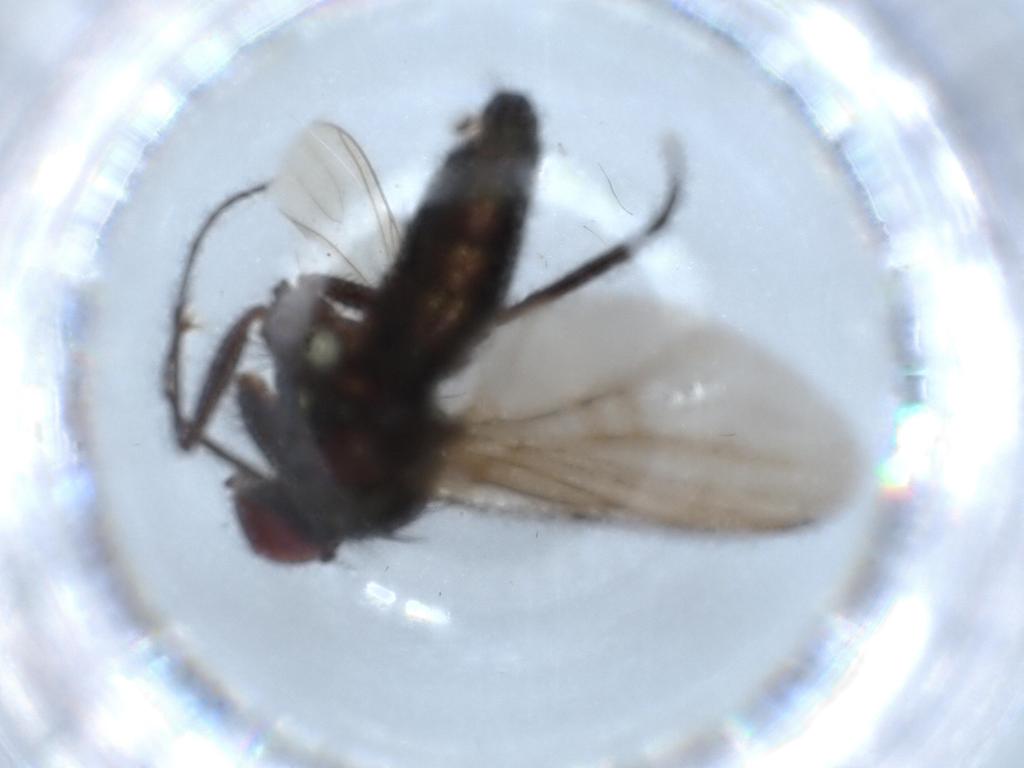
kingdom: Animalia
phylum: Arthropoda
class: Insecta
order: Diptera
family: Dolichopodidae
